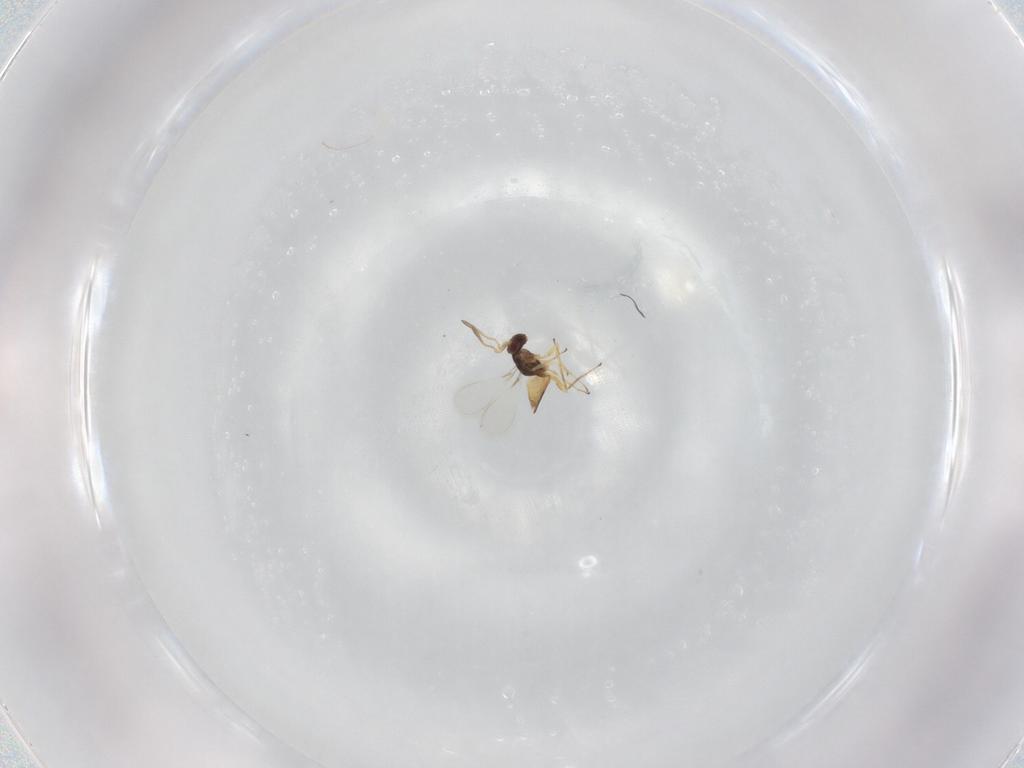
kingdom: Animalia
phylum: Arthropoda
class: Insecta
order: Hymenoptera
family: Mymaridae
